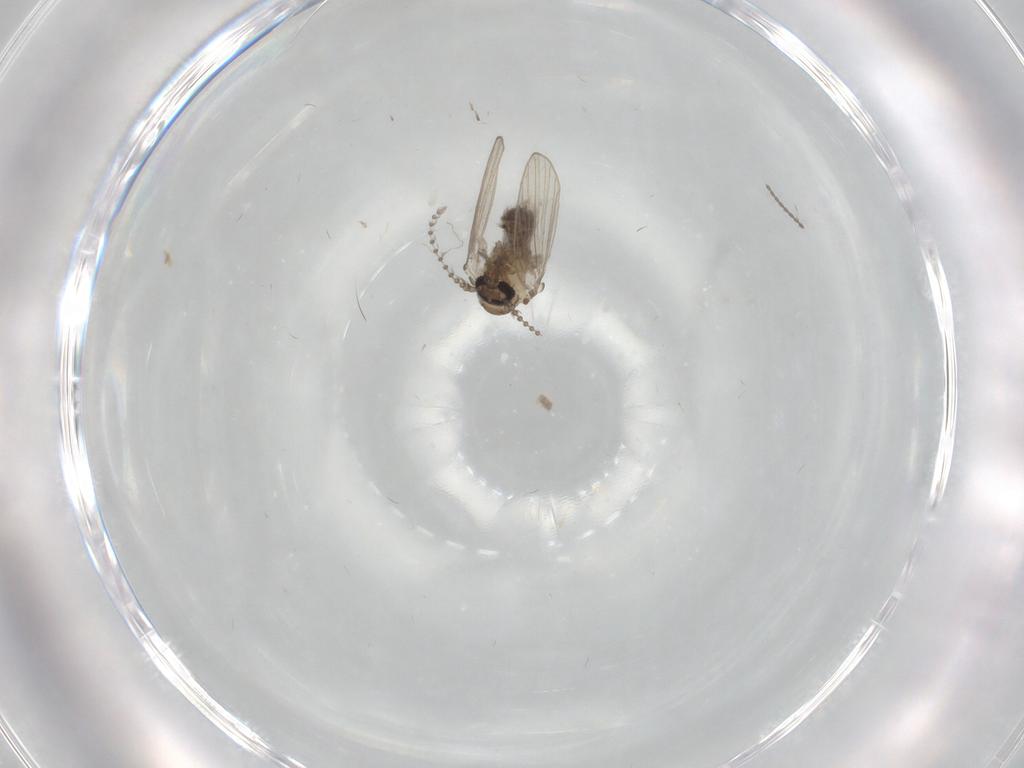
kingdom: Animalia
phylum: Arthropoda
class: Insecta
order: Diptera
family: Psychodidae
